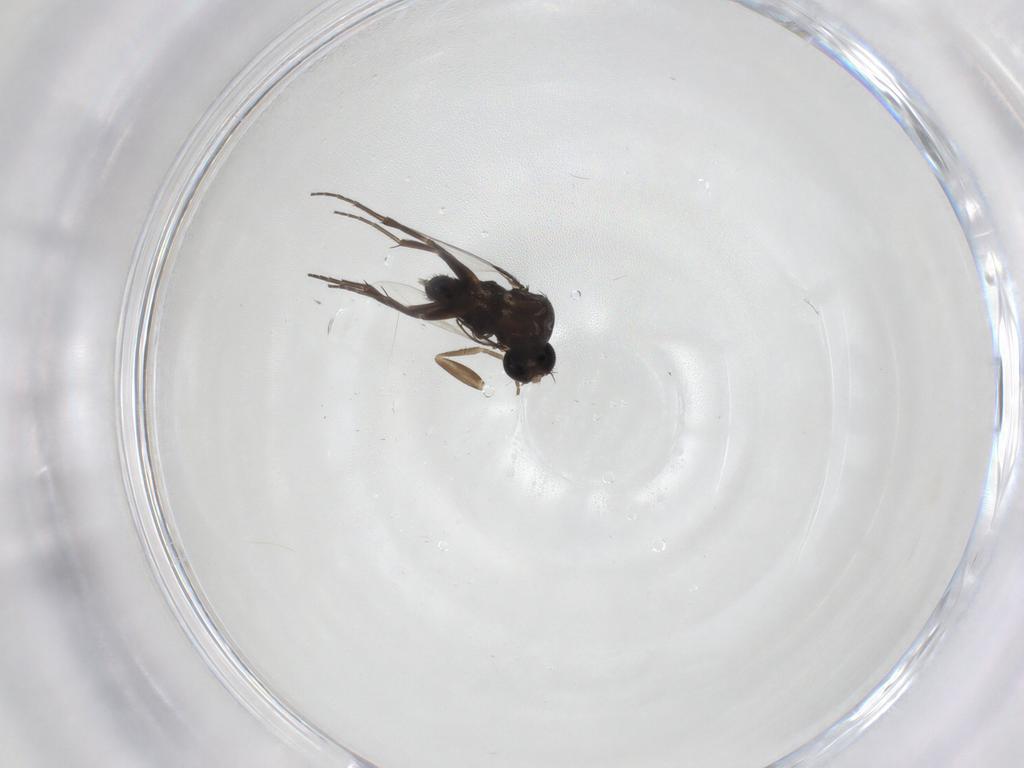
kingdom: Animalia
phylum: Arthropoda
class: Insecta
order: Diptera
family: Phoridae
